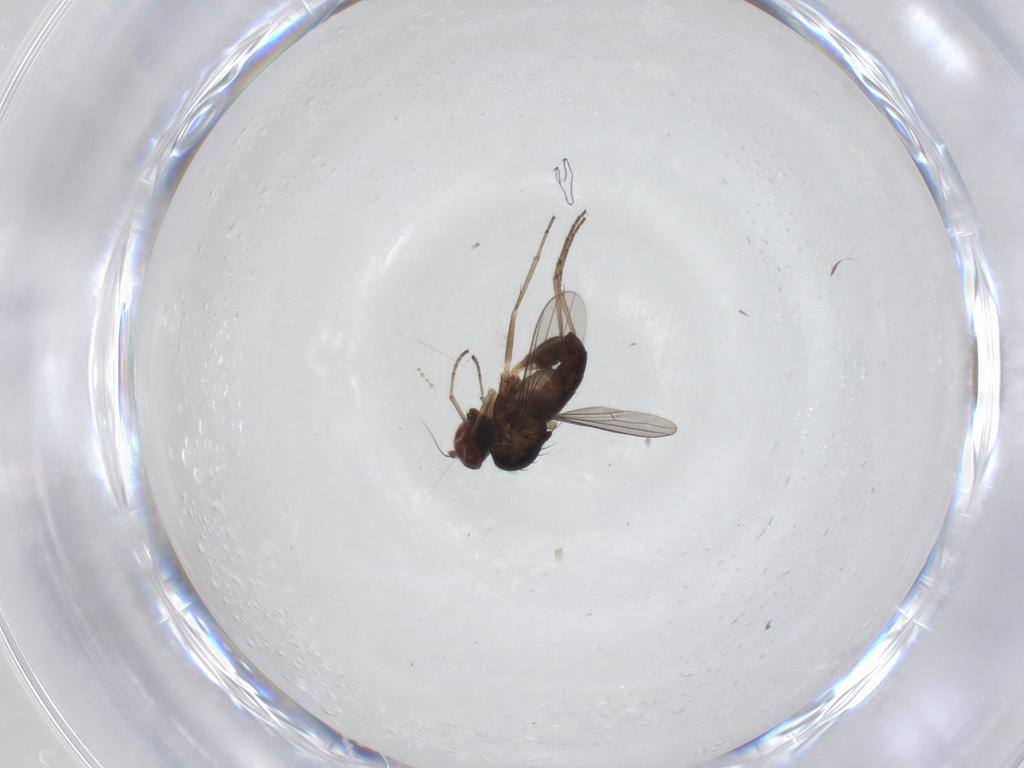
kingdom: Animalia
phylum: Arthropoda
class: Insecta
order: Diptera
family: Cecidomyiidae
